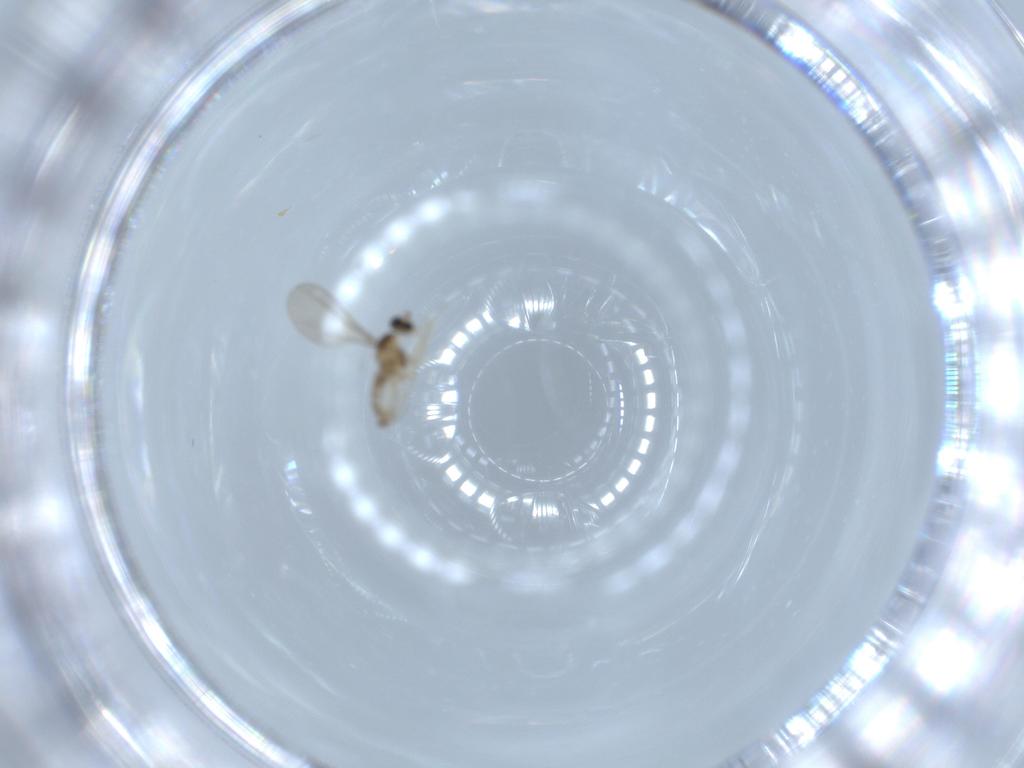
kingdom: Animalia
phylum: Arthropoda
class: Insecta
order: Diptera
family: Cecidomyiidae
